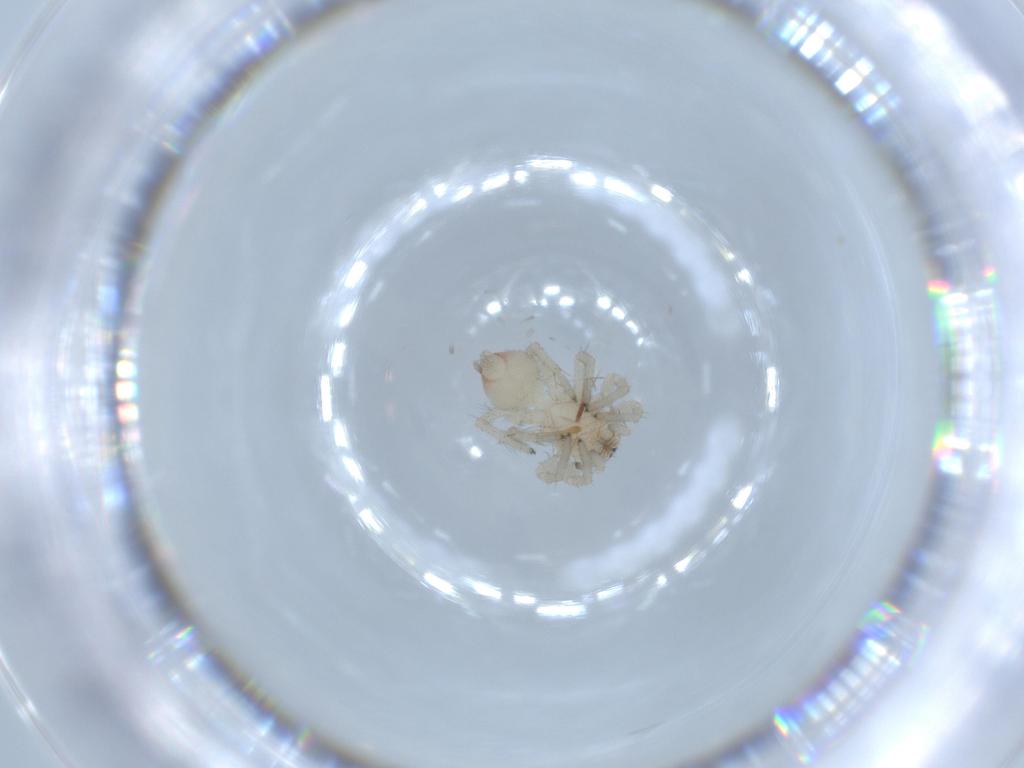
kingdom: Animalia
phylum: Arthropoda
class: Arachnida
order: Araneae
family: Clubionidae
